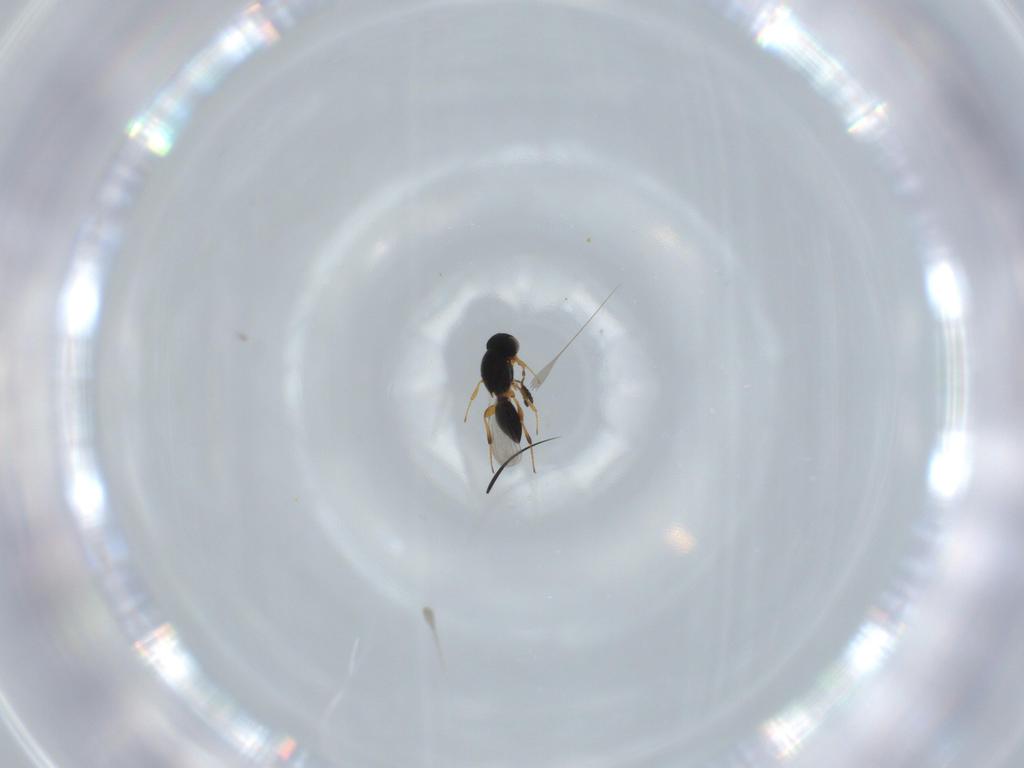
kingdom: Animalia
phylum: Arthropoda
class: Insecta
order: Hymenoptera
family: Platygastridae
